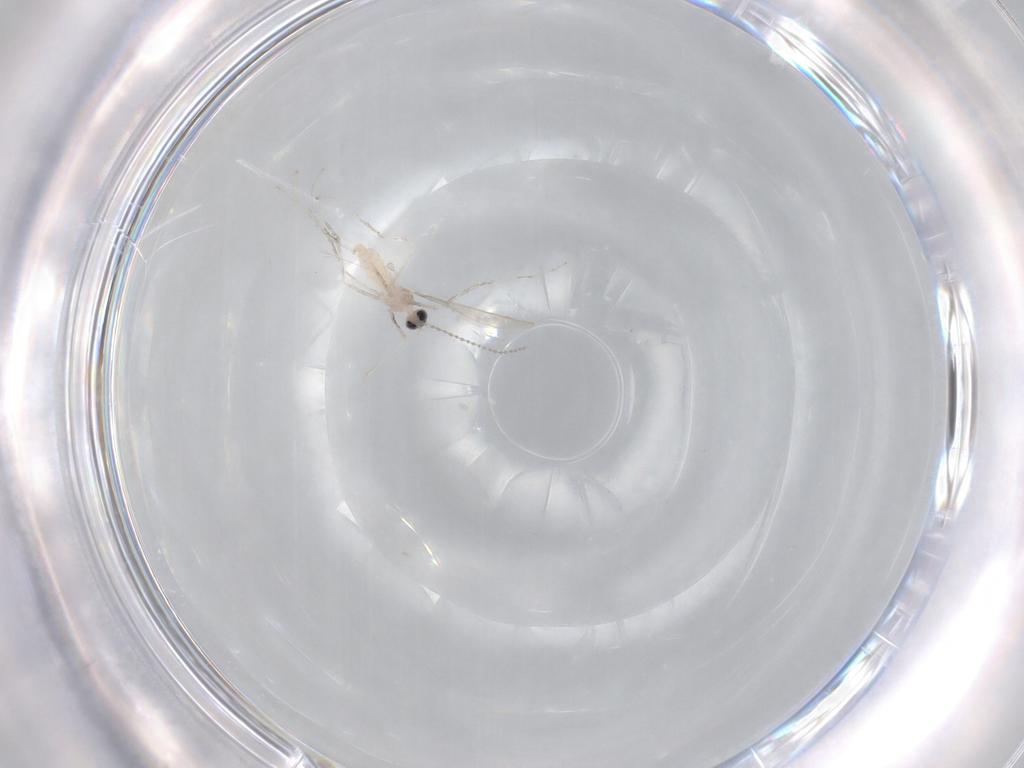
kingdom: Animalia
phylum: Arthropoda
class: Insecta
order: Diptera
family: Cecidomyiidae
